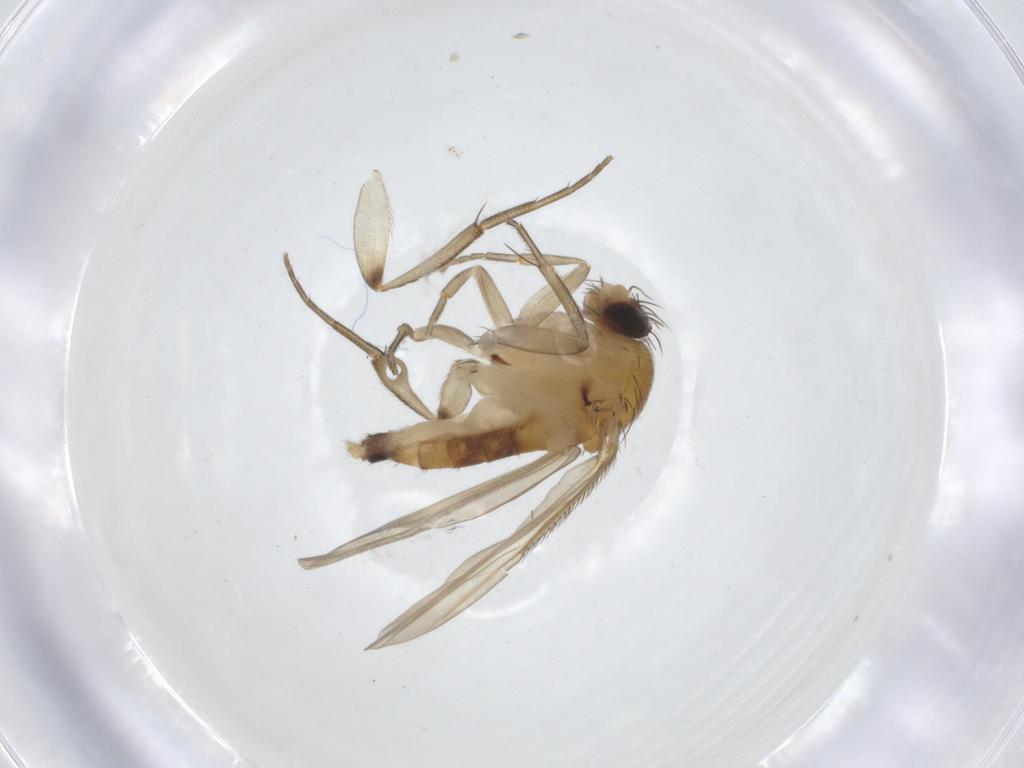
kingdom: Animalia
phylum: Arthropoda
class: Insecta
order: Diptera
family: Phoridae
